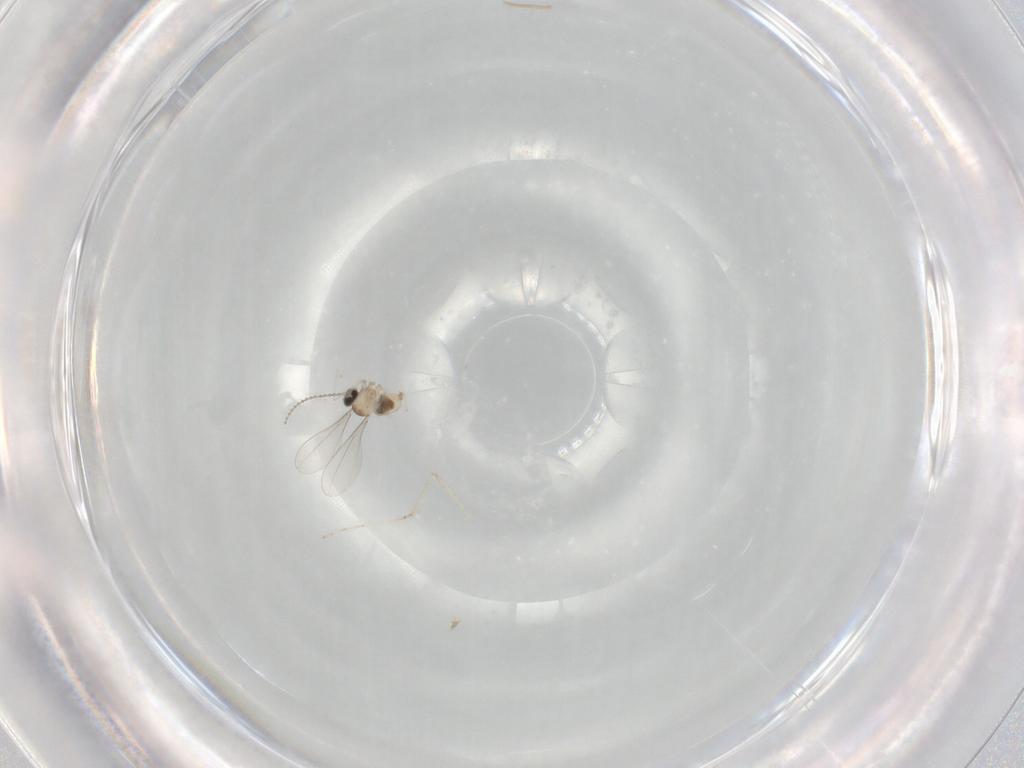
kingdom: Animalia
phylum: Arthropoda
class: Insecta
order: Diptera
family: Cecidomyiidae
